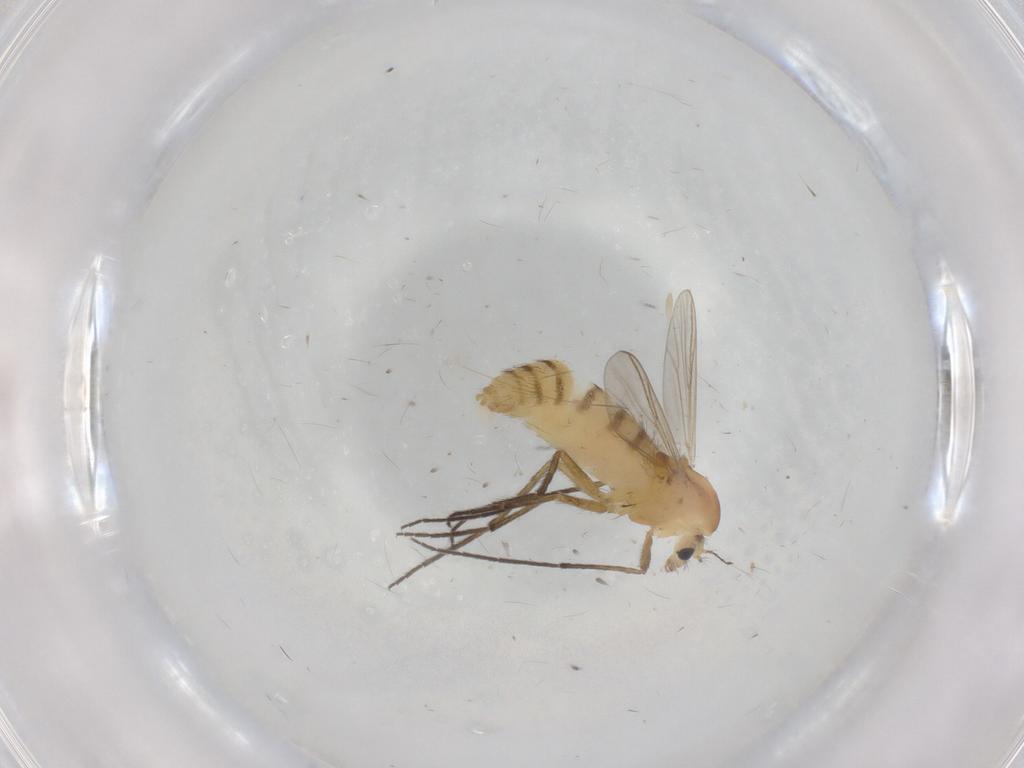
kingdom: Animalia
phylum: Arthropoda
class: Insecta
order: Diptera
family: Chironomidae
